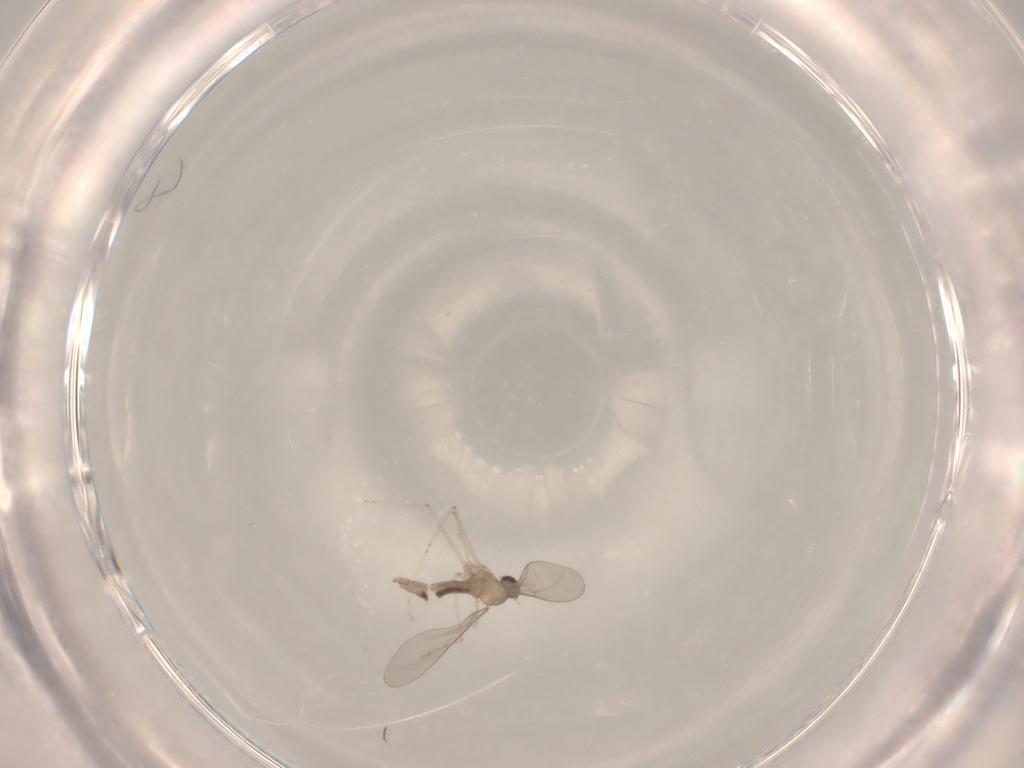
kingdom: Animalia
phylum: Arthropoda
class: Insecta
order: Diptera
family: Cecidomyiidae
